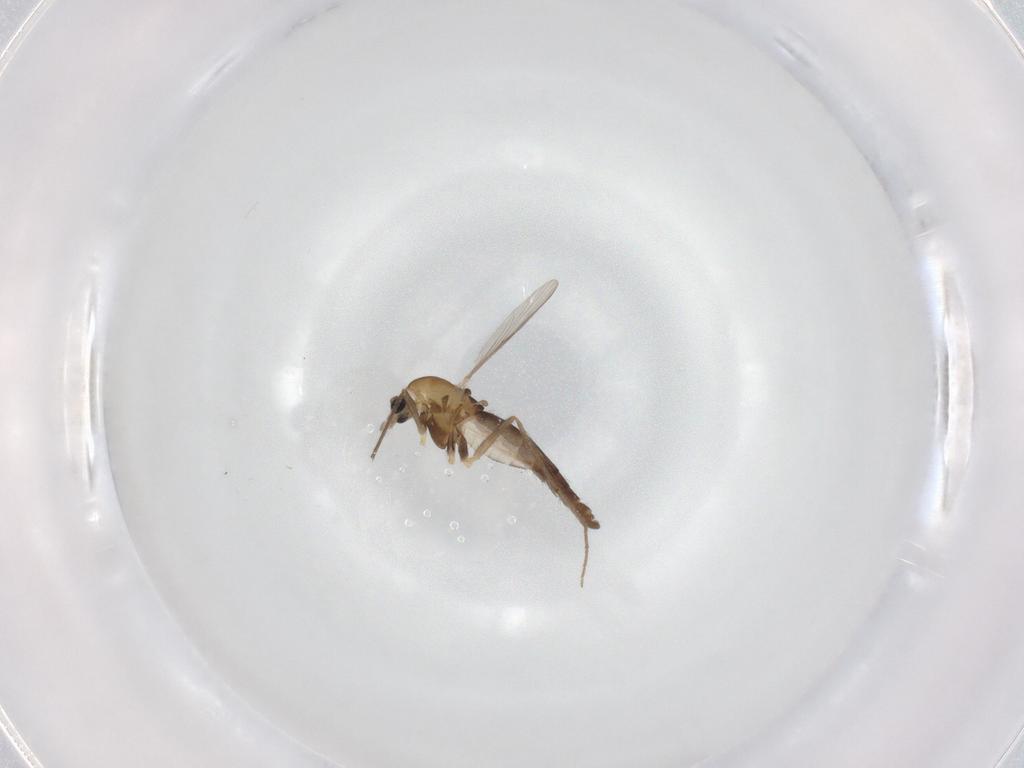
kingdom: Animalia
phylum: Arthropoda
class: Insecta
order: Diptera
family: Chironomidae
